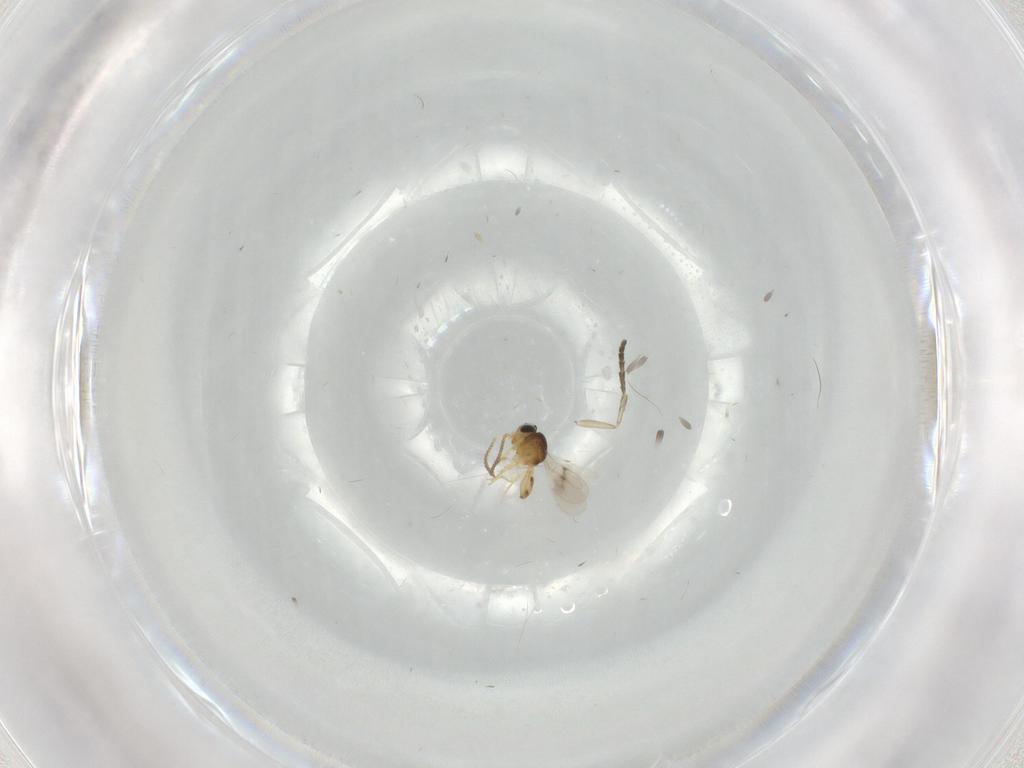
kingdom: Animalia
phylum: Arthropoda
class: Insecta
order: Hymenoptera
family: Scelionidae
